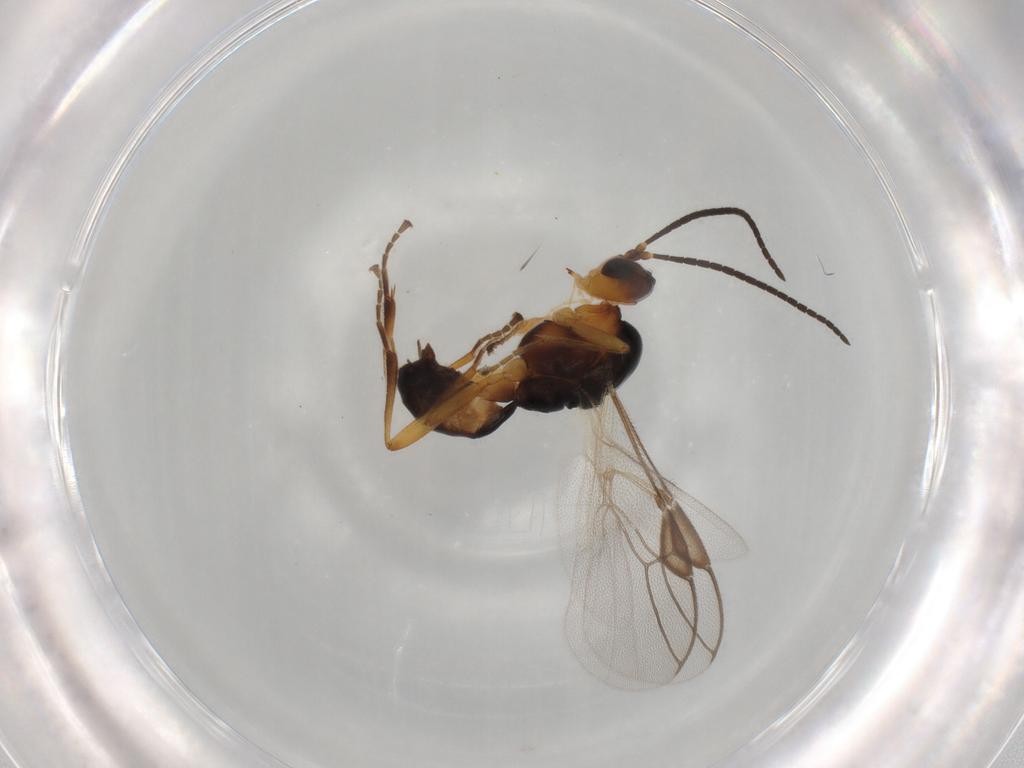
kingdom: Animalia
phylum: Arthropoda
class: Insecta
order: Hymenoptera
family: Braconidae
